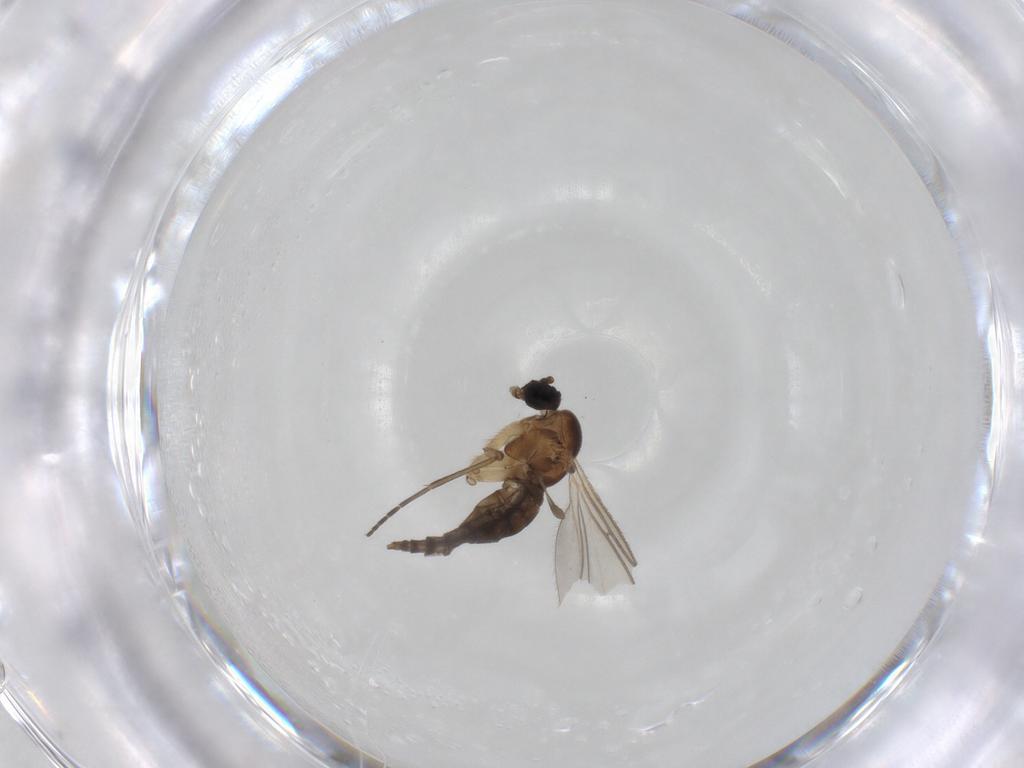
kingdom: Animalia
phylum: Arthropoda
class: Insecta
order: Diptera
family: Sciaridae
